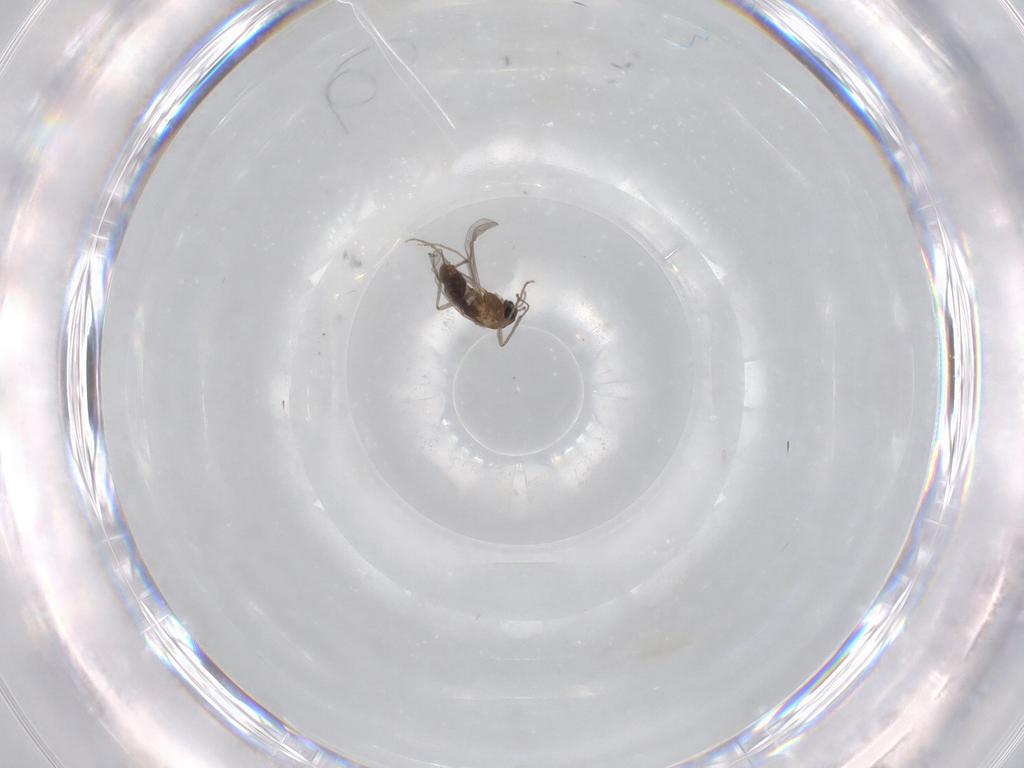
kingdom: Animalia
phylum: Arthropoda
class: Insecta
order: Diptera
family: Chironomidae
